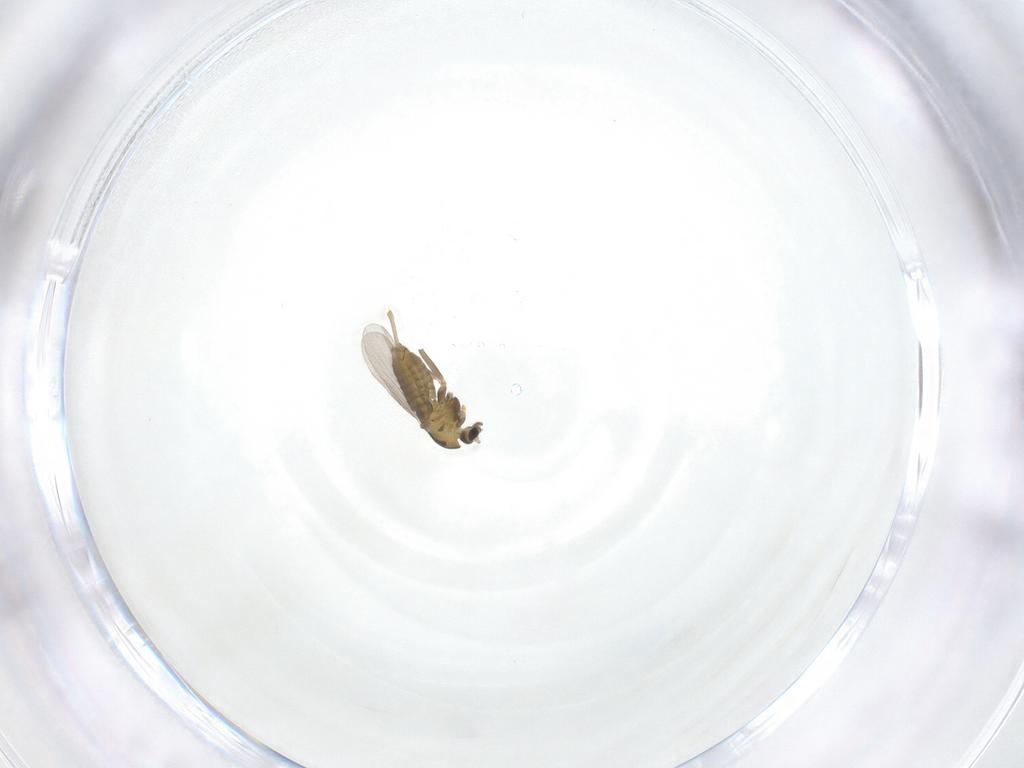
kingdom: Animalia
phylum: Arthropoda
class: Insecta
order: Diptera
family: Chironomidae
